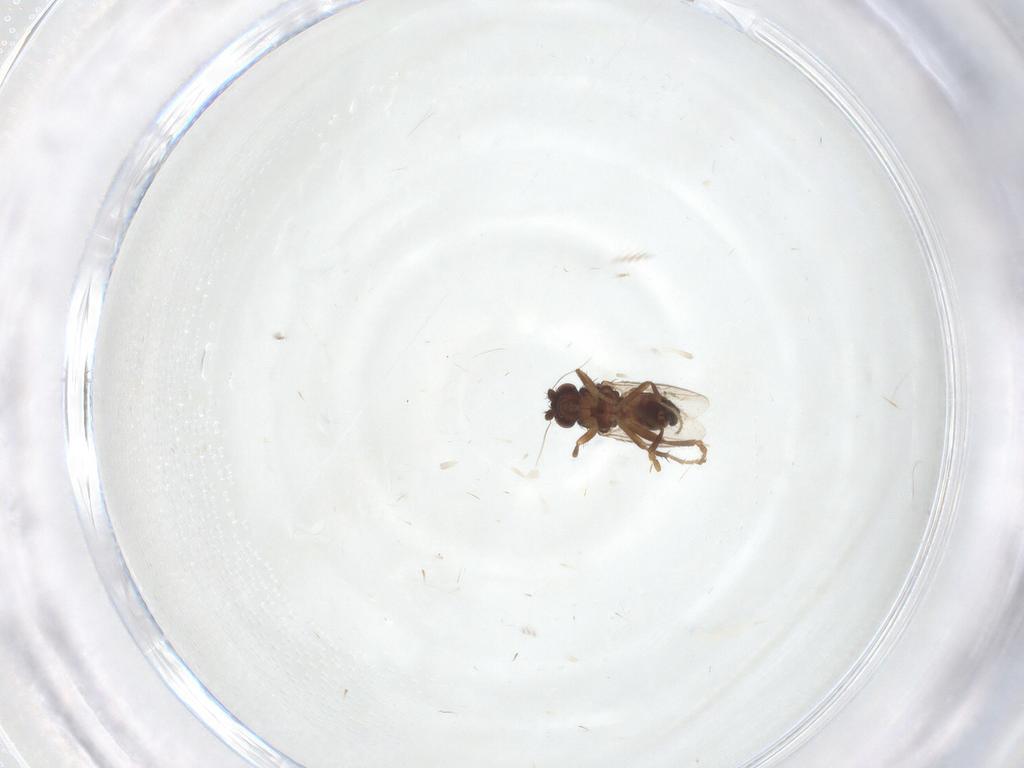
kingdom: Animalia
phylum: Arthropoda
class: Insecta
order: Diptera
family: Sphaeroceridae
